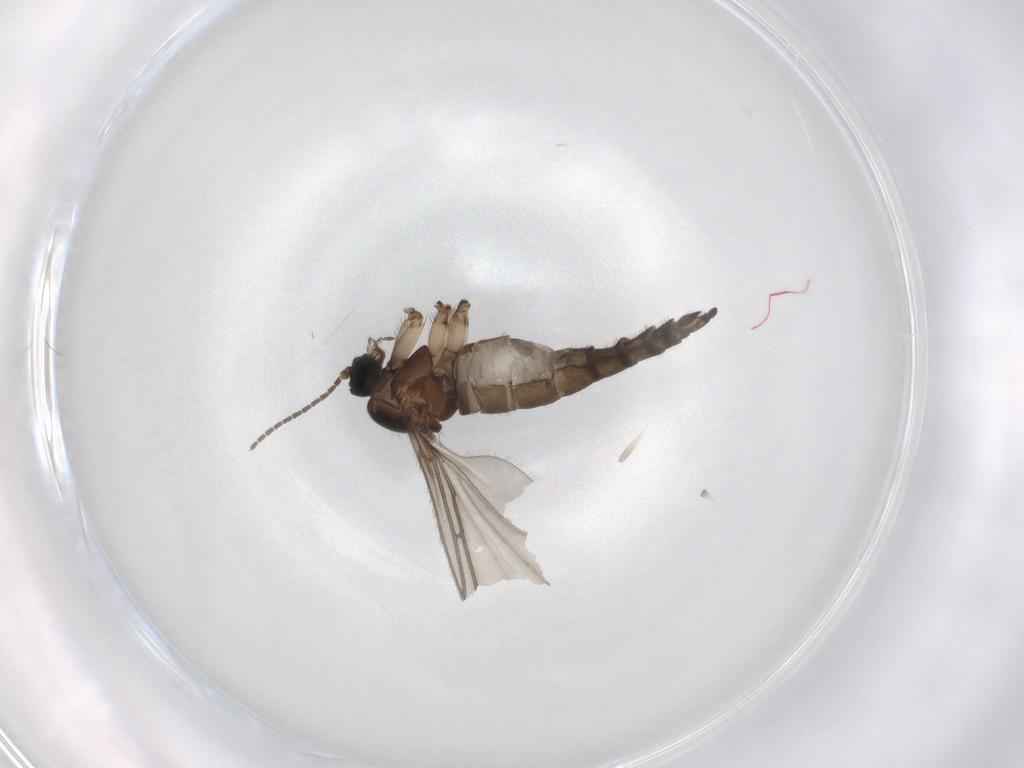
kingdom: Animalia
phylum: Arthropoda
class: Insecta
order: Diptera
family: Sciaridae
